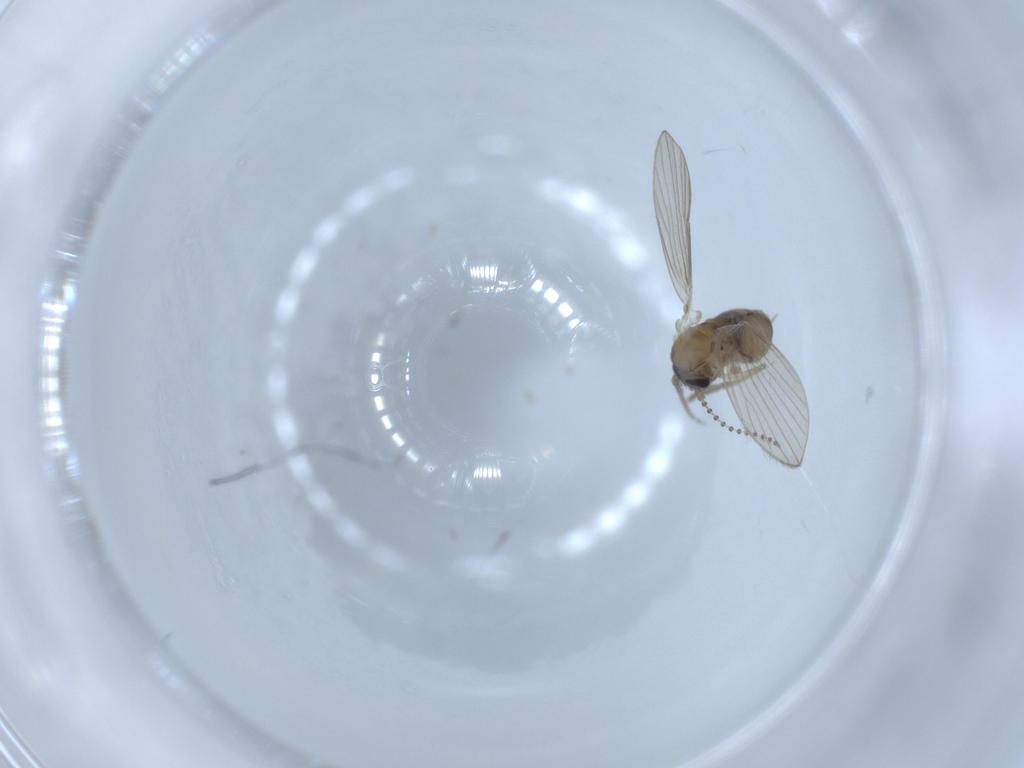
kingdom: Animalia
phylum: Arthropoda
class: Insecta
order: Diptera
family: Psychodidae
